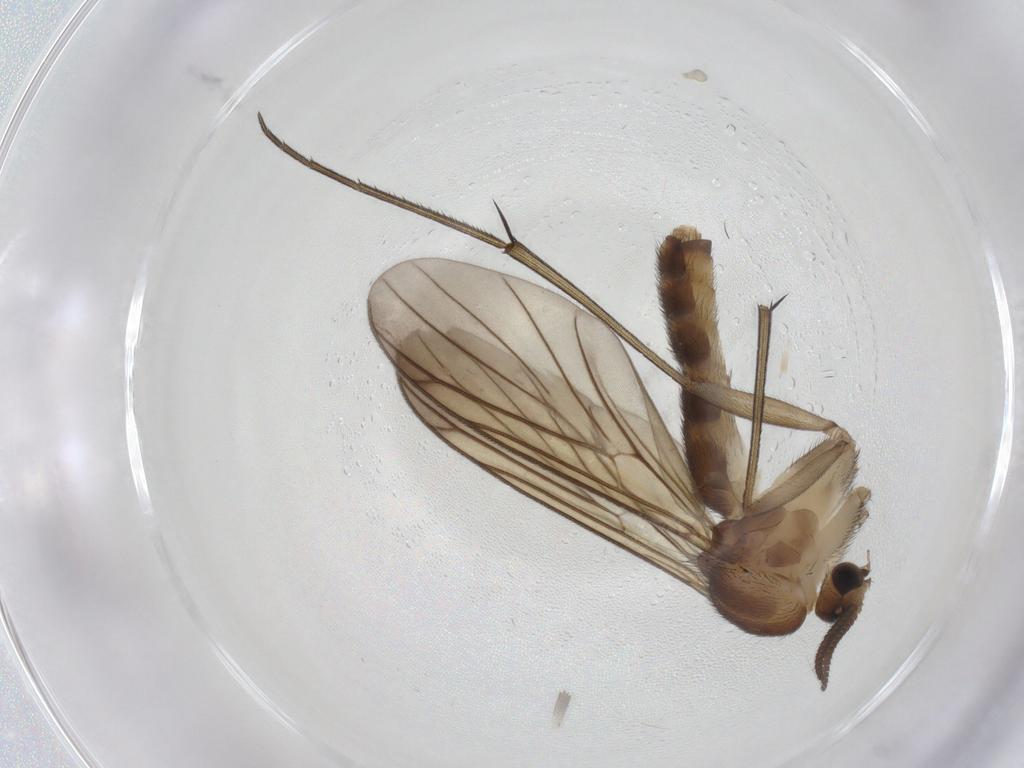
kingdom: Animalia
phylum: Arthropoda
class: Insecta
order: Diptera
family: Mycetophilidae
